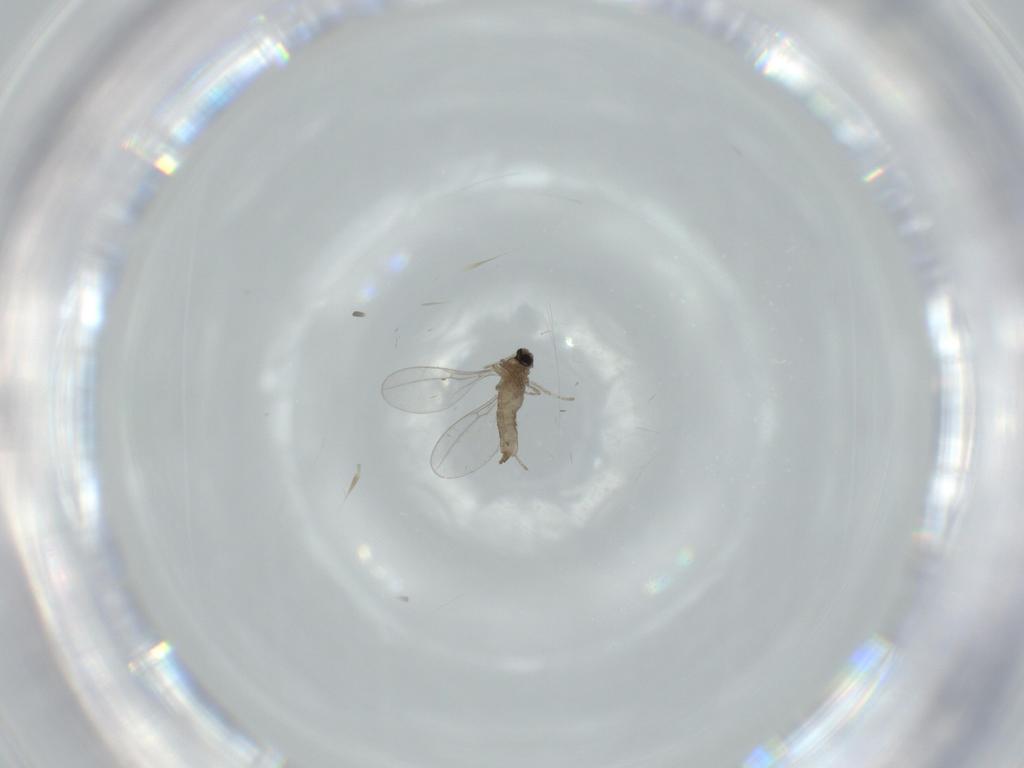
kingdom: Animalia
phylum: Arthropoda
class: Insecta
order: Diptera
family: Cecidomyiidae
